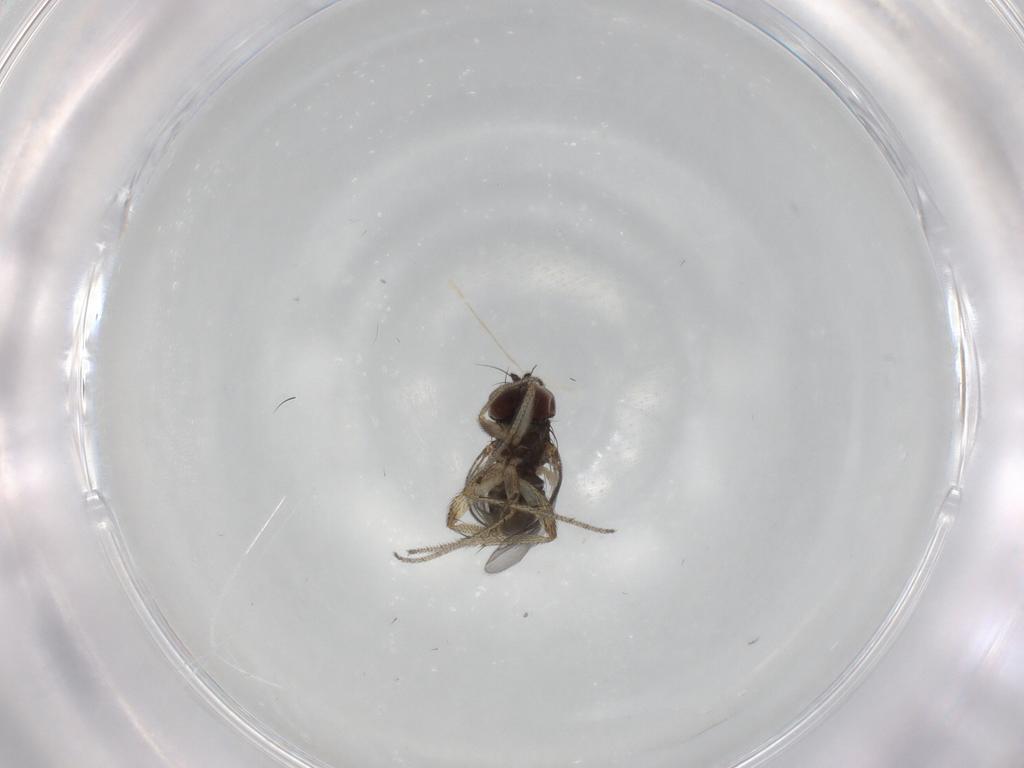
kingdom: Animalia
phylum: Arthropoda
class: Insecta
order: Diptera
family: Dolichopodidae
